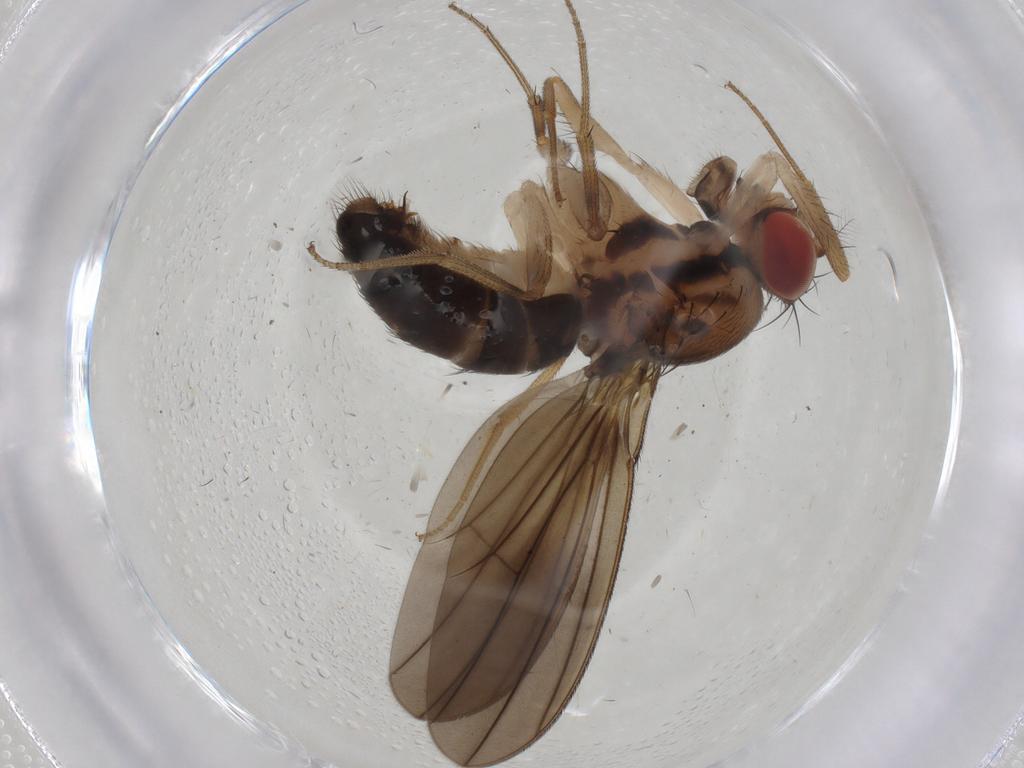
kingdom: Animalia
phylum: Arthropoda
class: Insecta
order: Diptera
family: Drosophilidae
